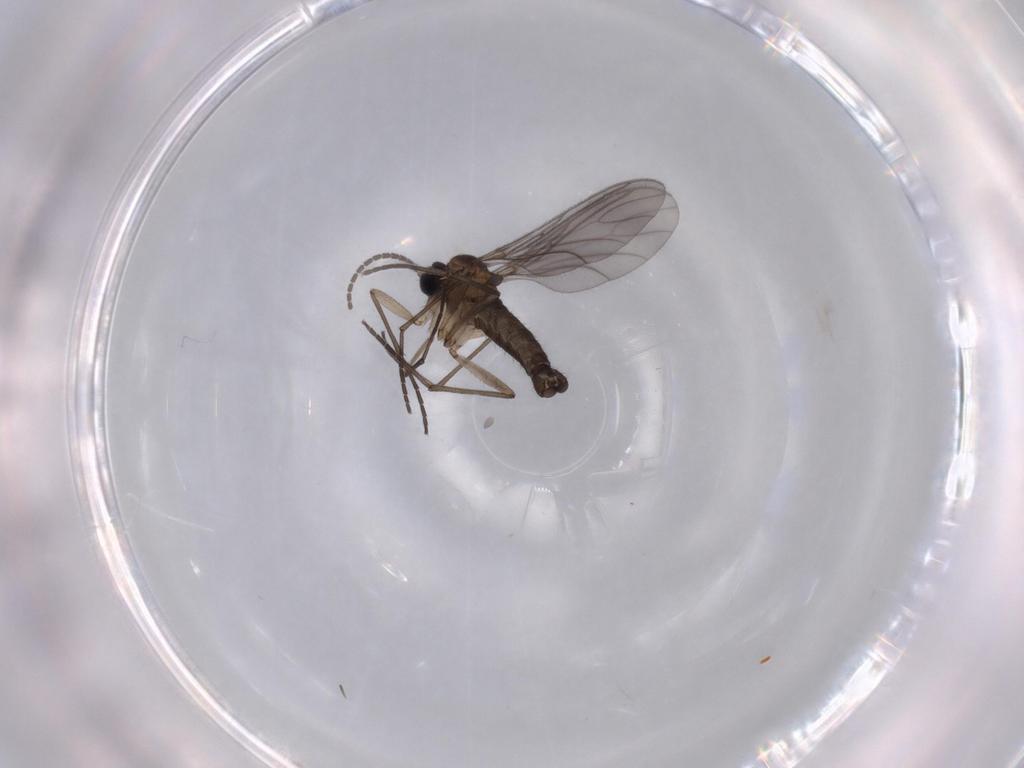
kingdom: Animalia
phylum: Arthropoda
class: Insecta
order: Diptera
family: Sciaridae
